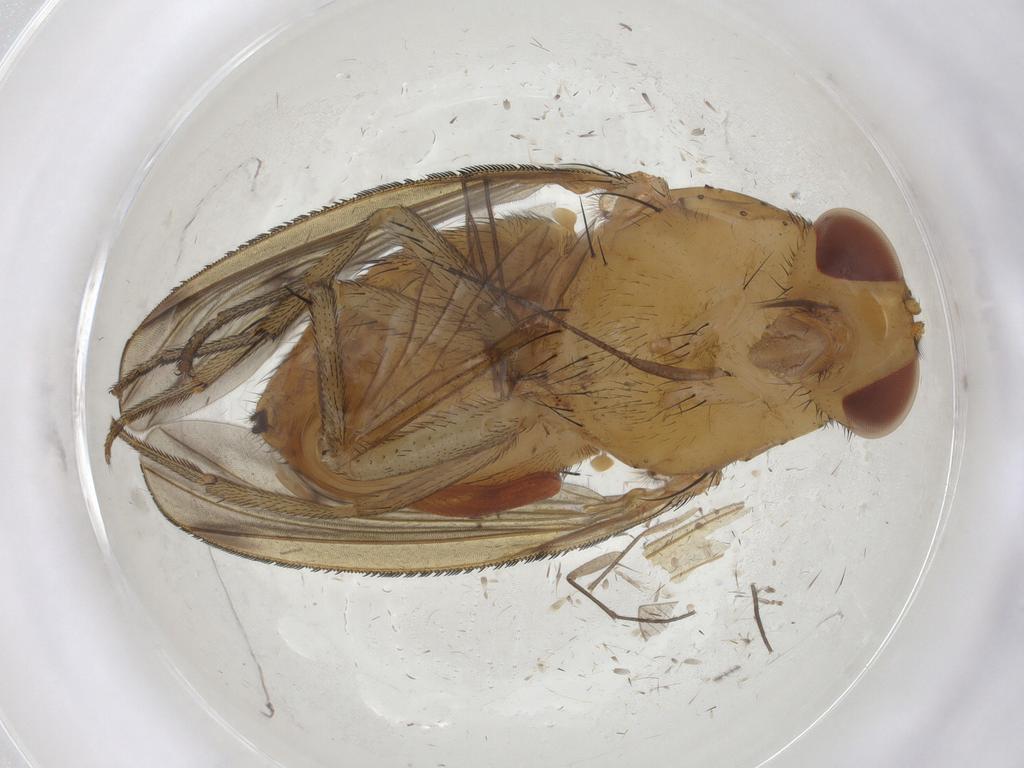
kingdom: Animalia
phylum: Arthropoda
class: Insecta
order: Diptera
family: Mycetophilidae
